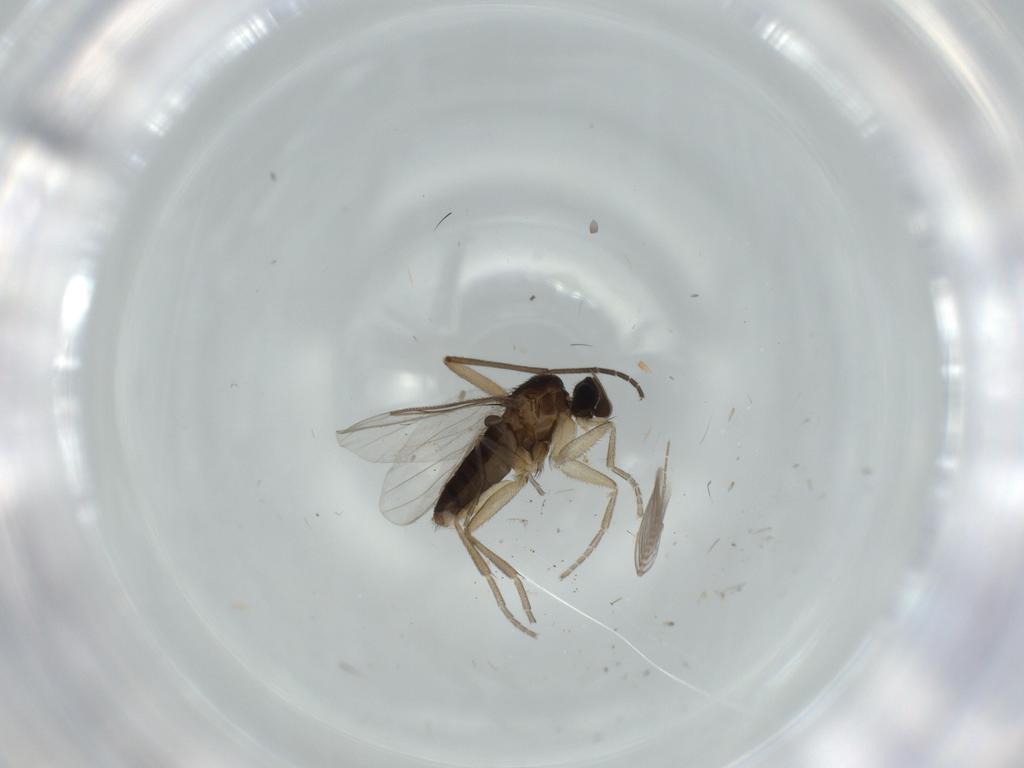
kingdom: Animalia
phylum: Arthropoda
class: Insecta
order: Diptera
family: Sciaridae
